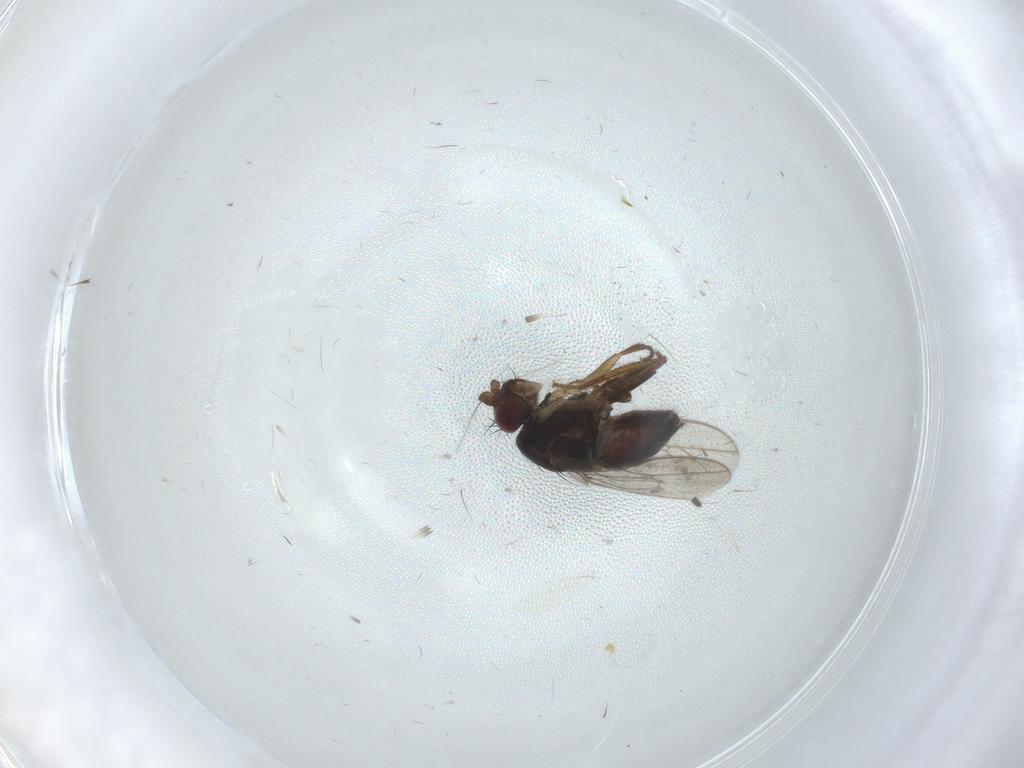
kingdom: Animalia
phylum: Arthropoda
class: Insecta
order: Diptera
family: Sphaeroceridae
